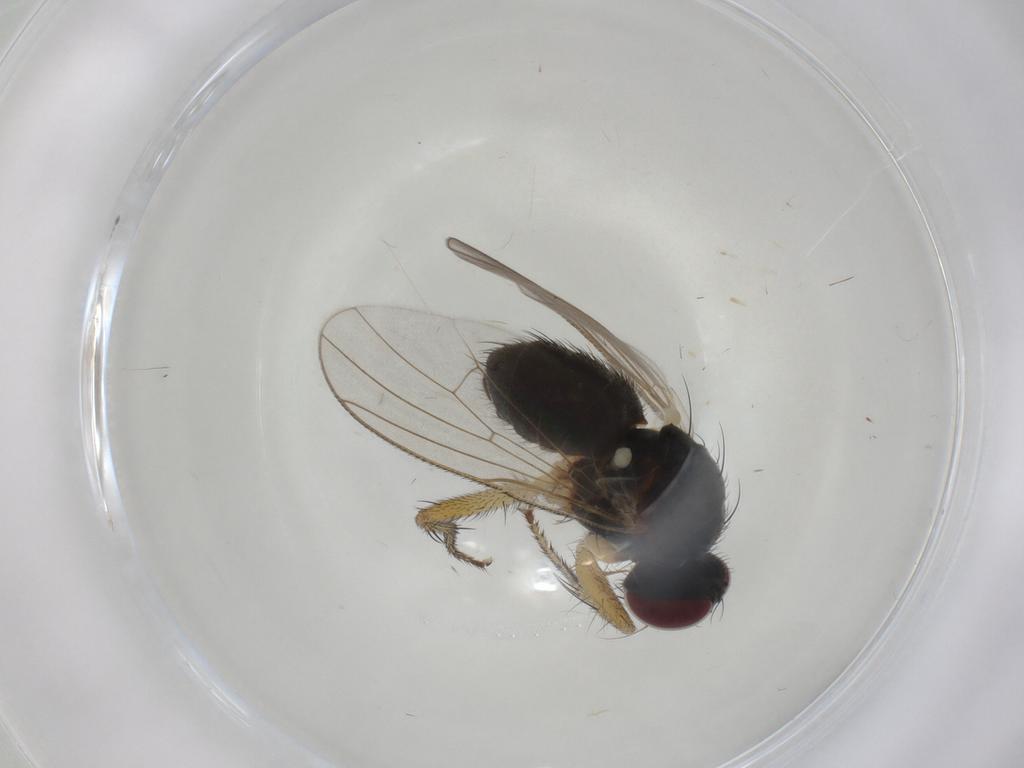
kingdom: Animalia
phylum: Arthropoda
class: Insecta
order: Diptera
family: Muscidae
